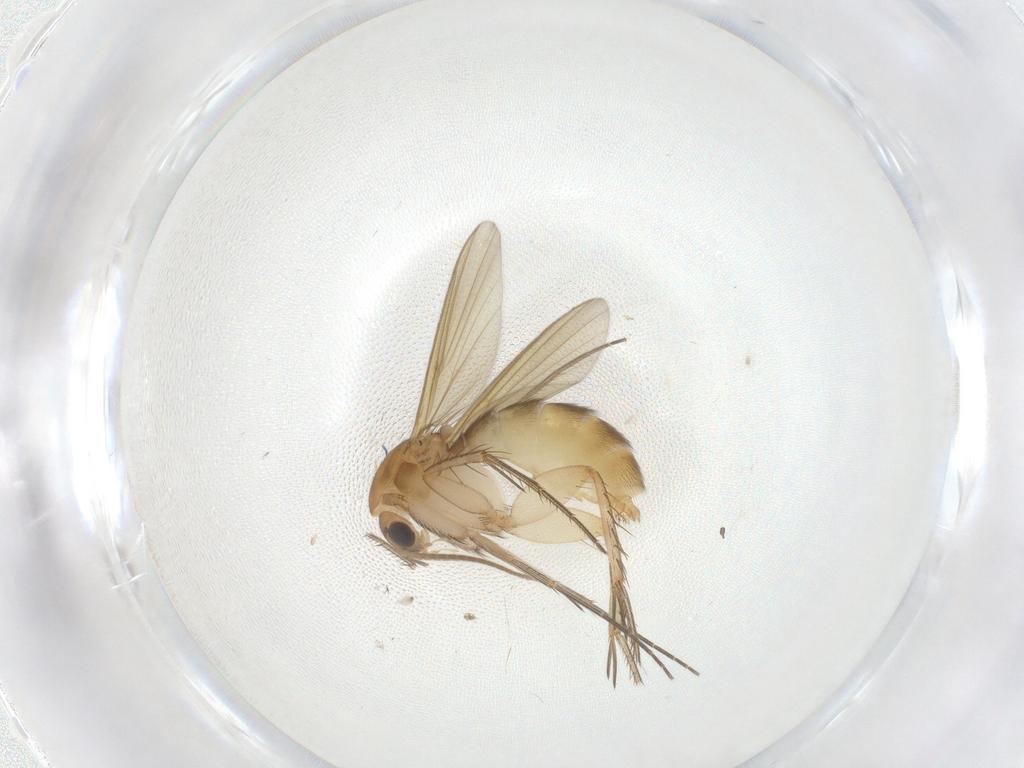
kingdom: Animalia
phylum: Arthropoda
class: Insecta
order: Diptera
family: Mycetophilidae
